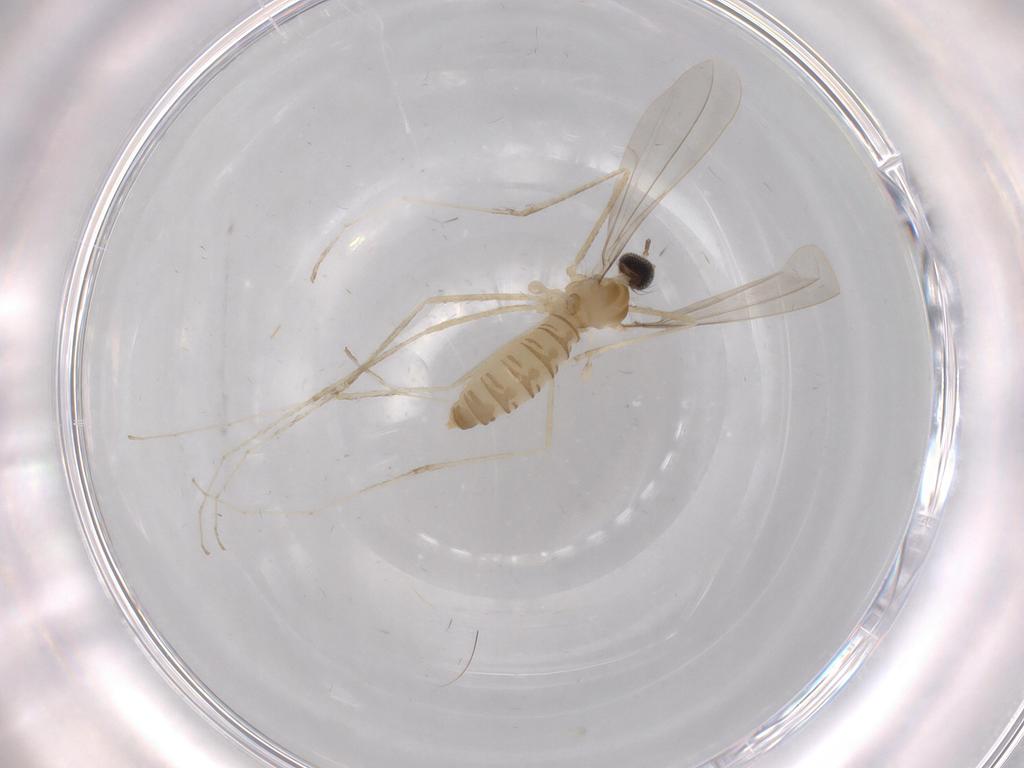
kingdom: Animalia
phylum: Arthropoda
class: Insecta
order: Diptera
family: Cecidomyiidae
